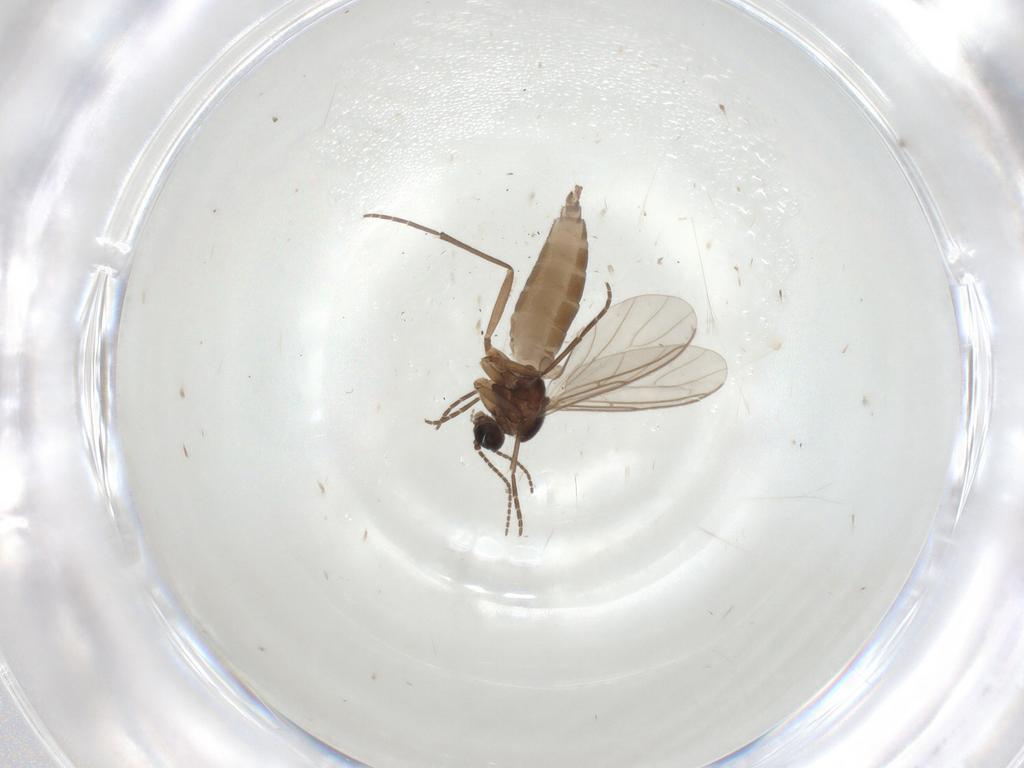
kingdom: Animalia
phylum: Arthropoda
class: Insecta
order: Diptera
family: Sciaridae
